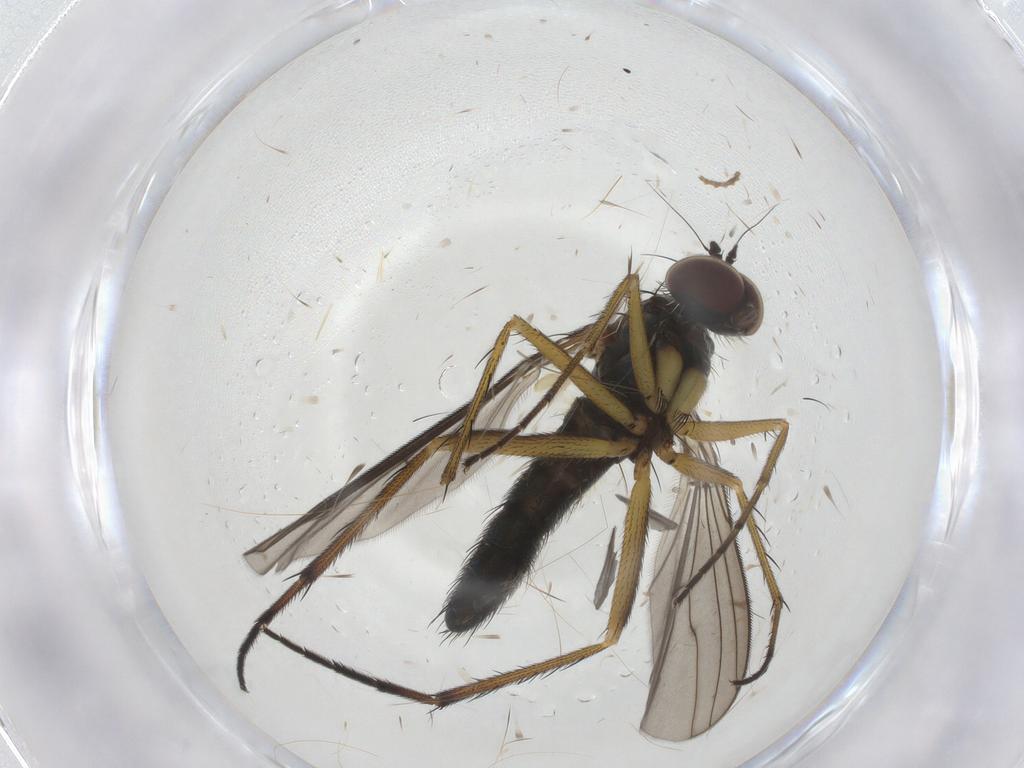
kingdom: Animalia
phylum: Arthropoda
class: Insecta
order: Diptera
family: Dolichopodidae
